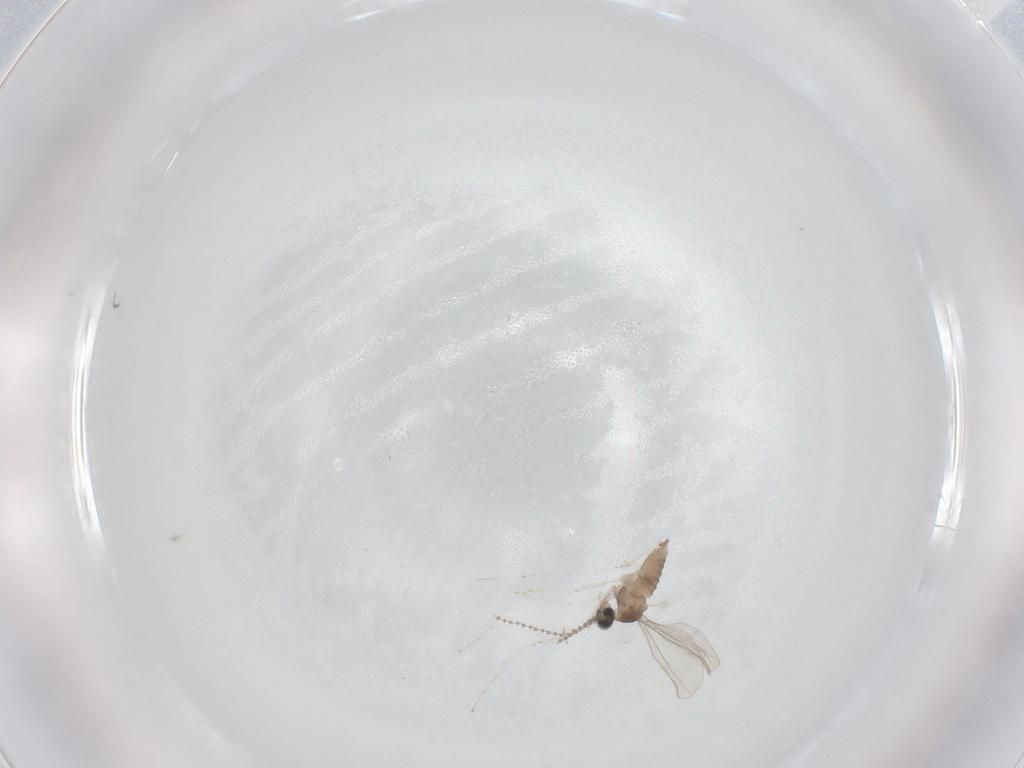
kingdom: Animalia
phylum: Arthropoda
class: Insecta
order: Diptera
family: Cecidomyiidae
